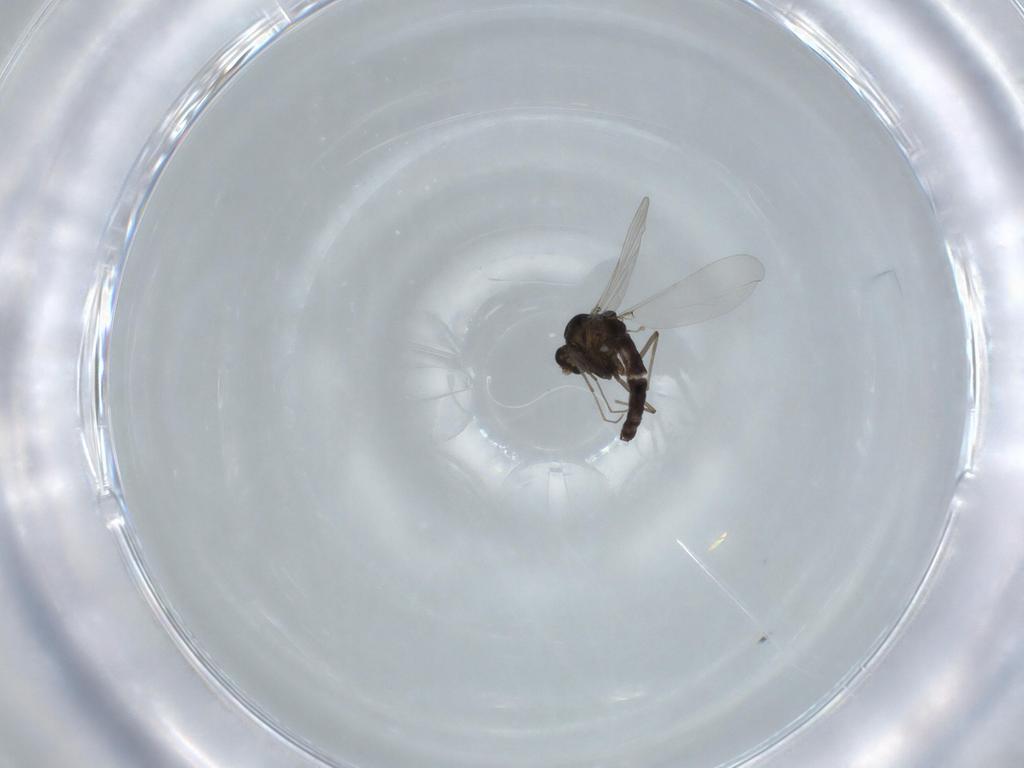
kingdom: Animalia
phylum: Arthropoda
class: Insecta
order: Diptera
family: Chironomidae
